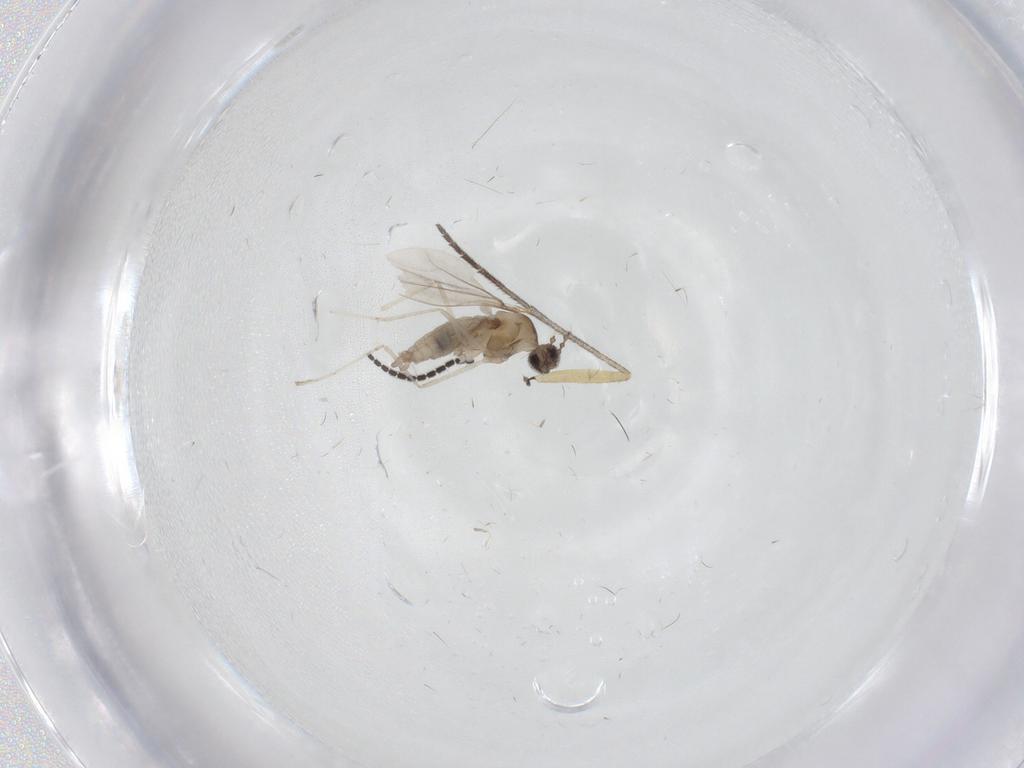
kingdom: Animalia
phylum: Arthropoda
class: Insecta
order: Diptera
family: Cecidomyiidae
